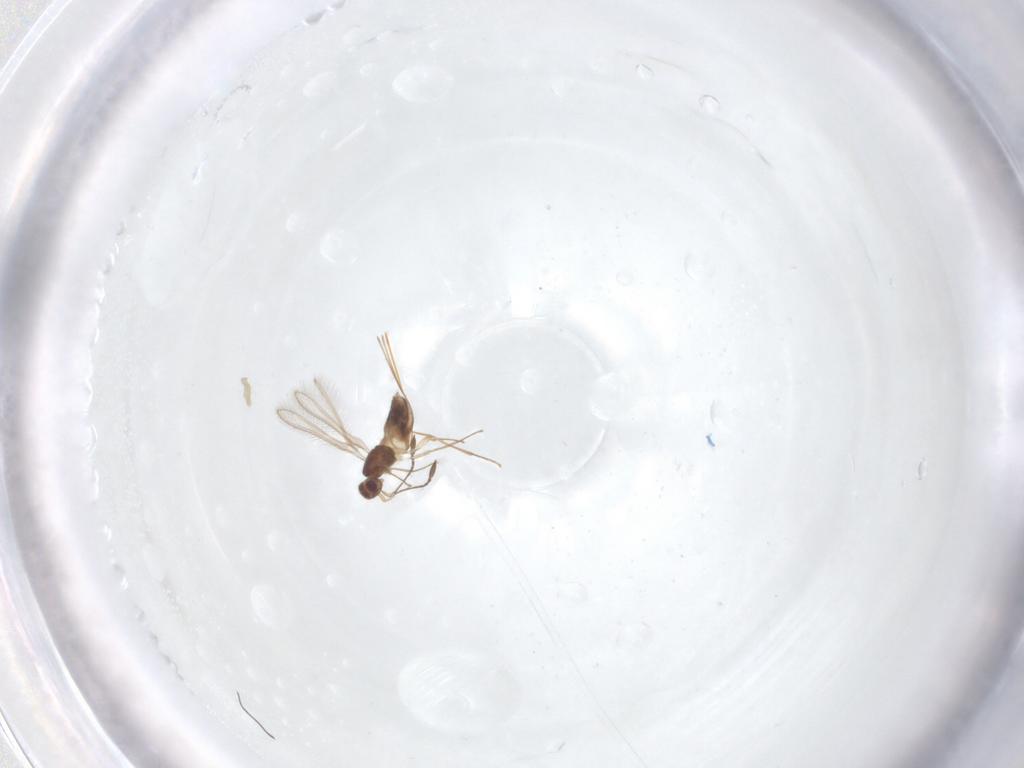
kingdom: Animalia
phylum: Arthropoda
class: Insecta
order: Hymenoptera
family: Mymaridae
